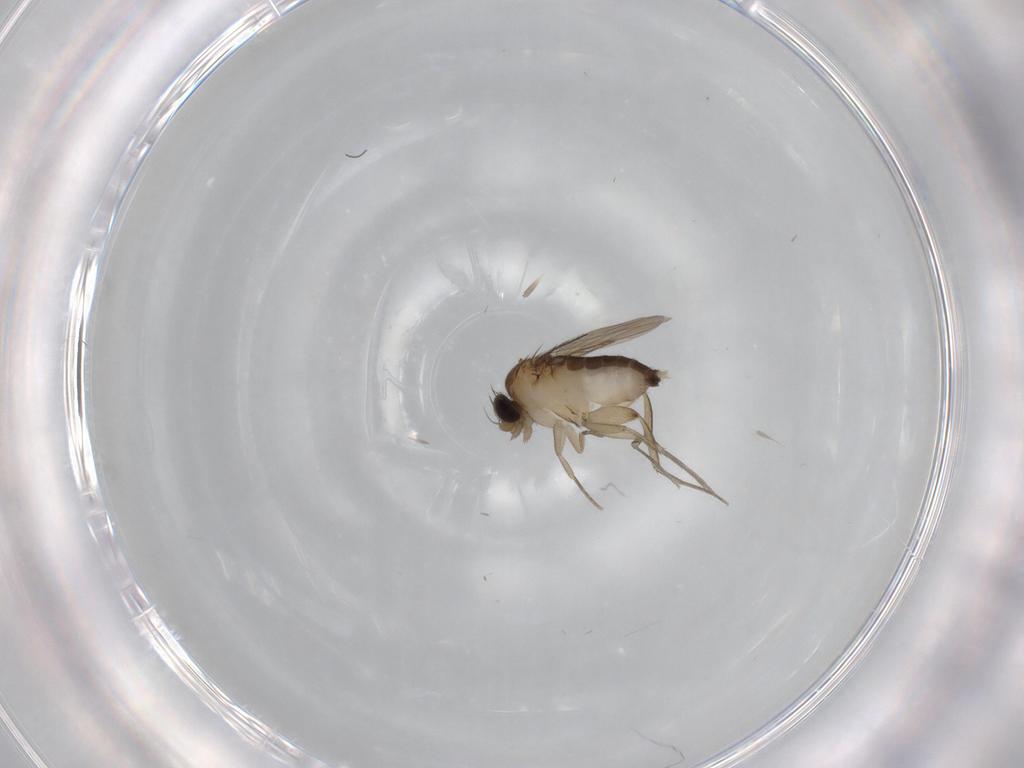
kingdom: Animalia
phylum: Arthropoda
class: Insecta
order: Diptera
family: Phoridae
